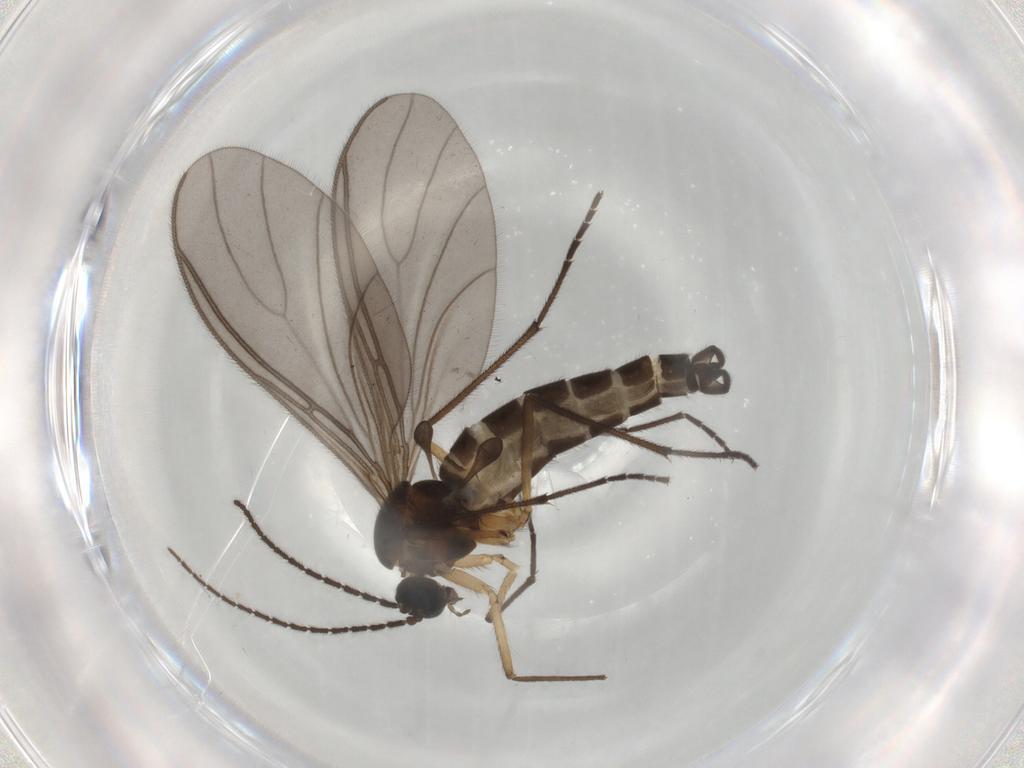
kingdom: Animalia
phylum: Arthropoda
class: Insecta
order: Diptera
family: Sciaridae
